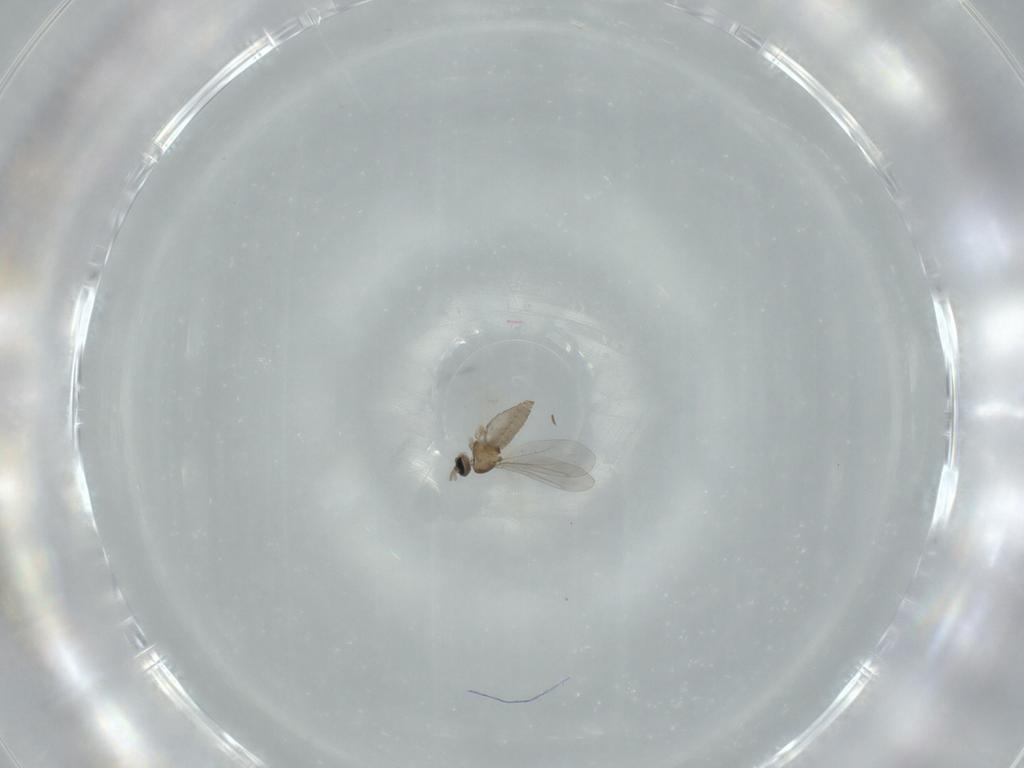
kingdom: Animalia
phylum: Arthropoda
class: Insecta
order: Diptera
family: Cecidomyiidae
